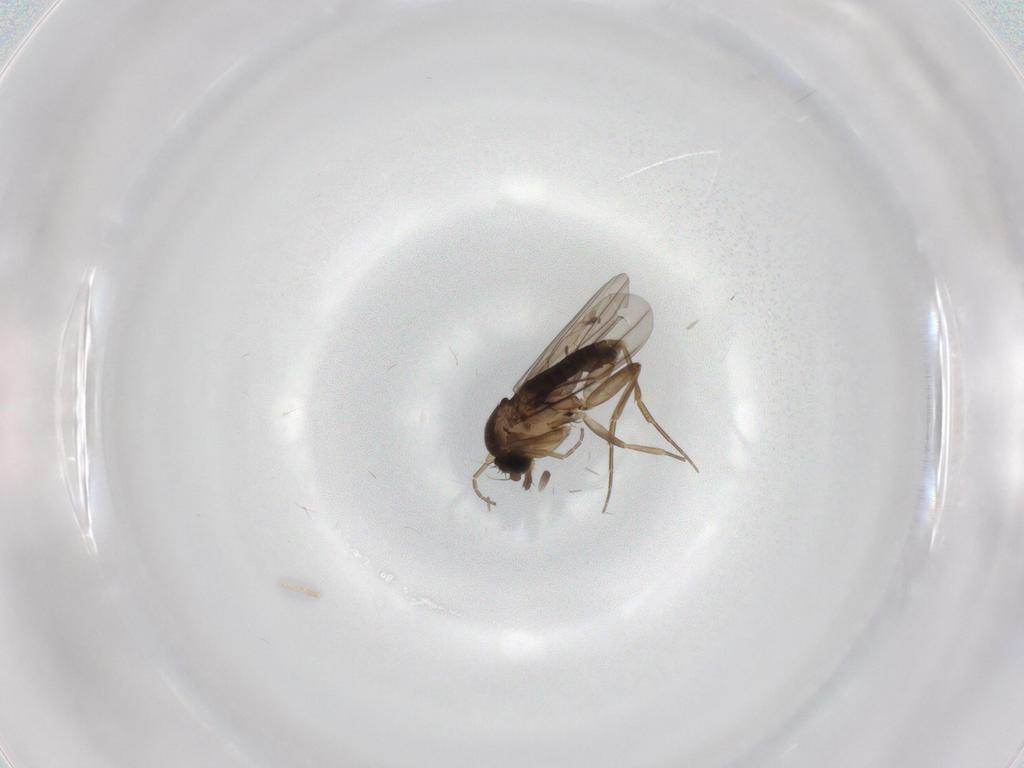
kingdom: Animalia
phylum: Arthropoda
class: Insecta
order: Diptera
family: Phoridae
